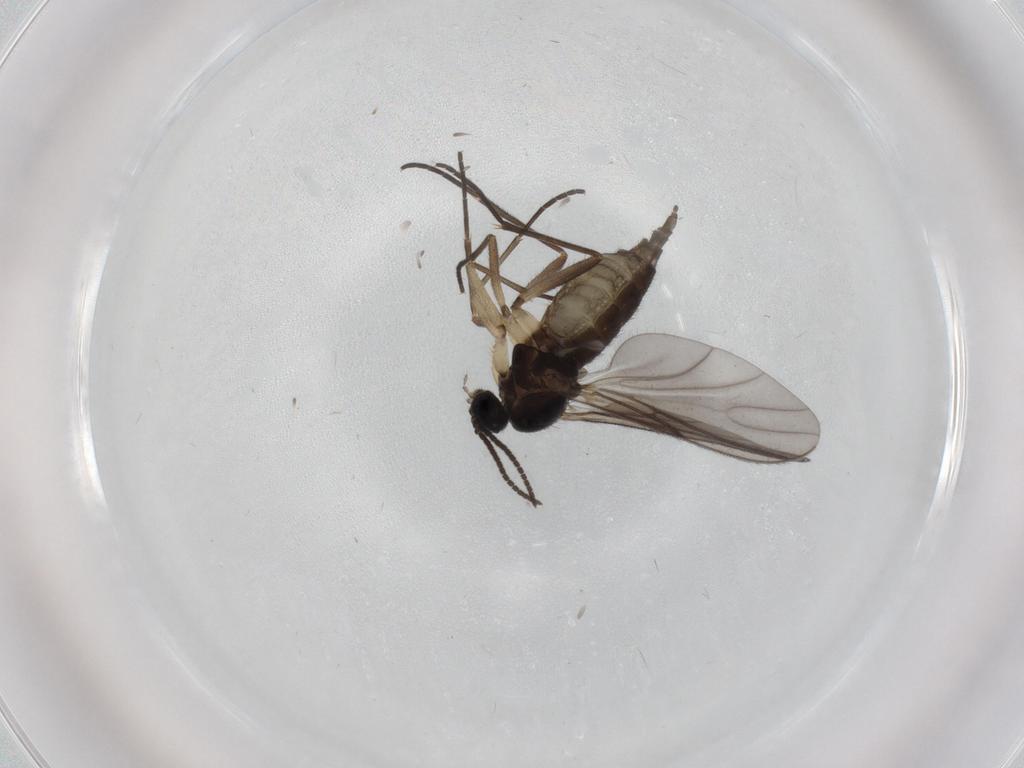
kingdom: Animalia
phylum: Arthropoda
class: Insecta
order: Diptera
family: Sciaridae
